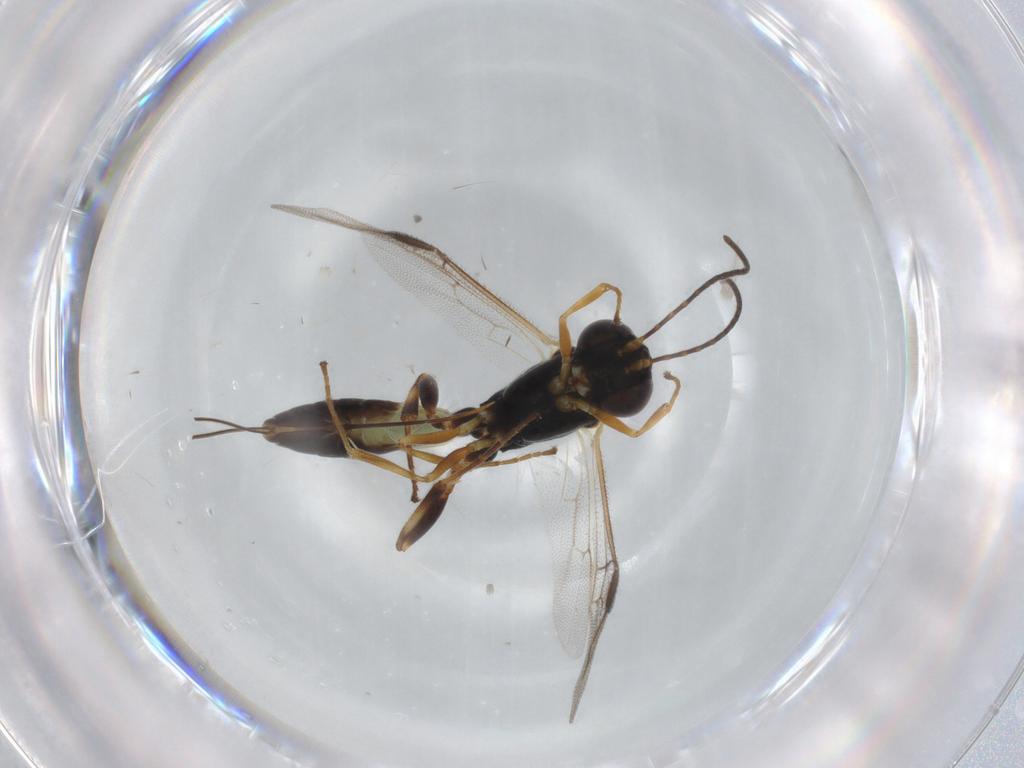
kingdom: Animalia
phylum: Arthropoda
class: Insecta
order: Hymenoptera
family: Ichneumonidae
